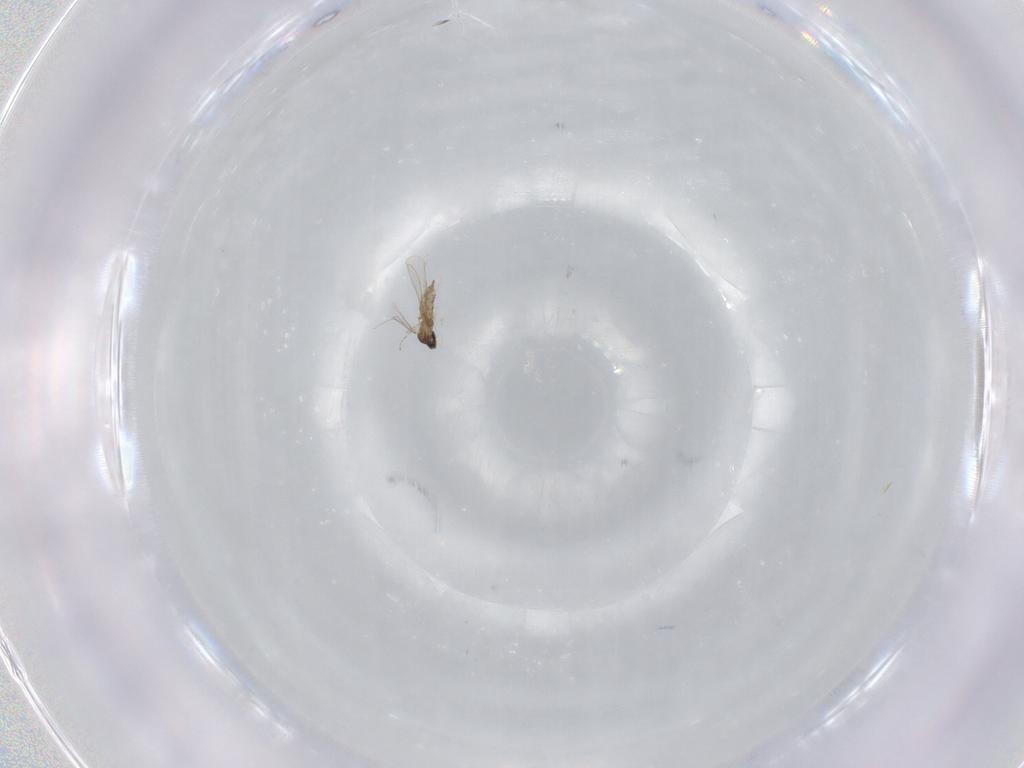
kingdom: Animalia
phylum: Arthropoda
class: Insecta
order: Diptera
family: Cecidomyiidae
